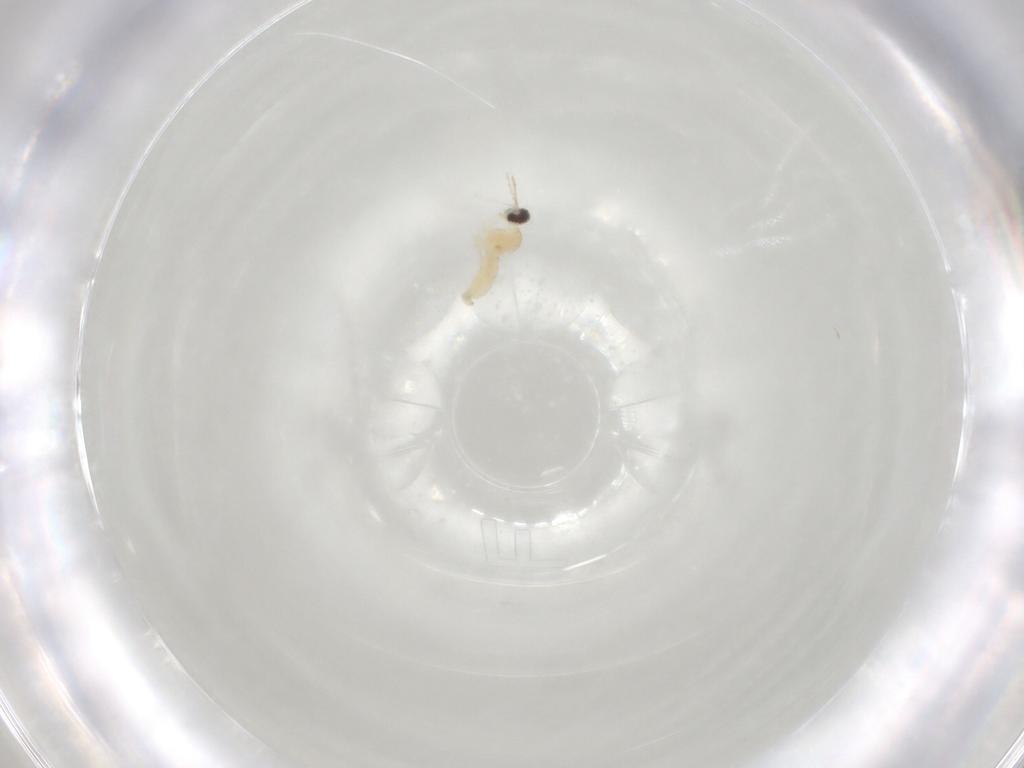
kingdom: Animalia
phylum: Arthropoda
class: Insecta
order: Diptera
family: Cecidomyiidae
